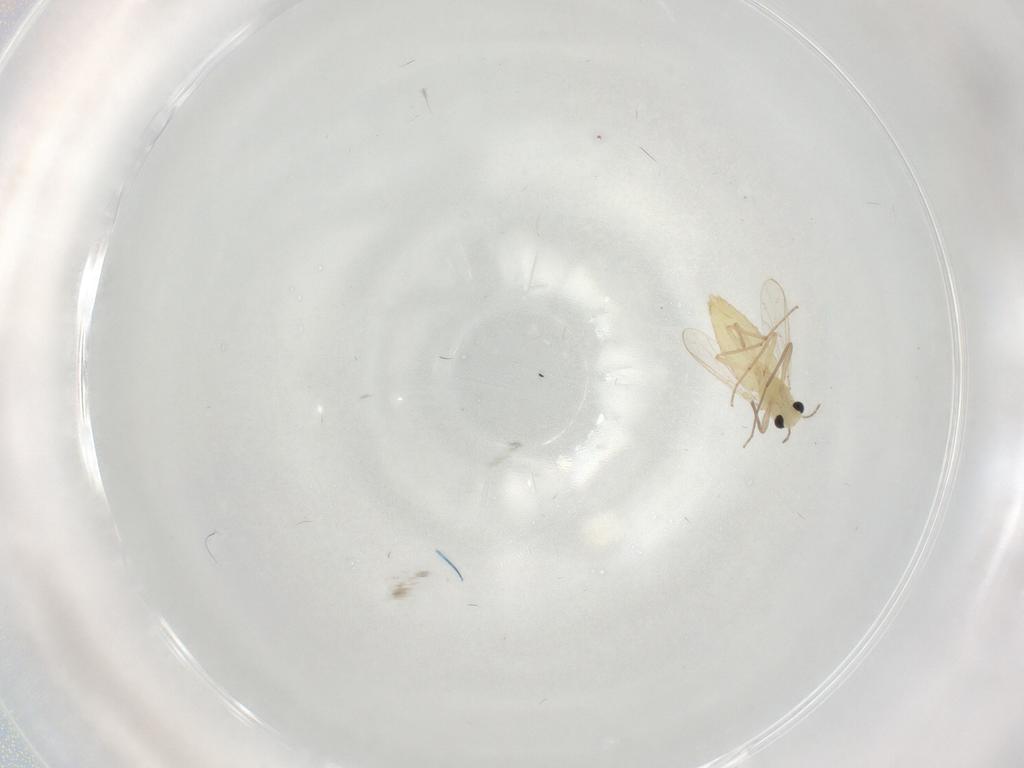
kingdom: Animalia
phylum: Arthropoda
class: Insecta
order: Diptera
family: Chironomidae
